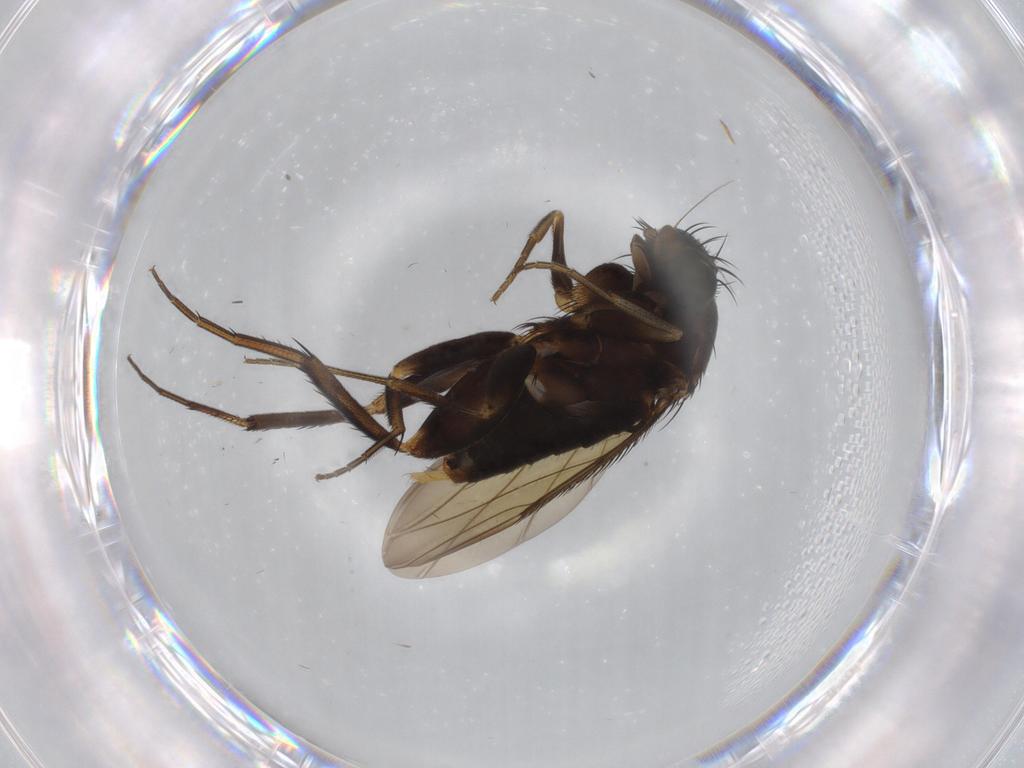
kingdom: Animalia
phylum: Arthropoda
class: Insecta
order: Diptera
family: Phoridae
